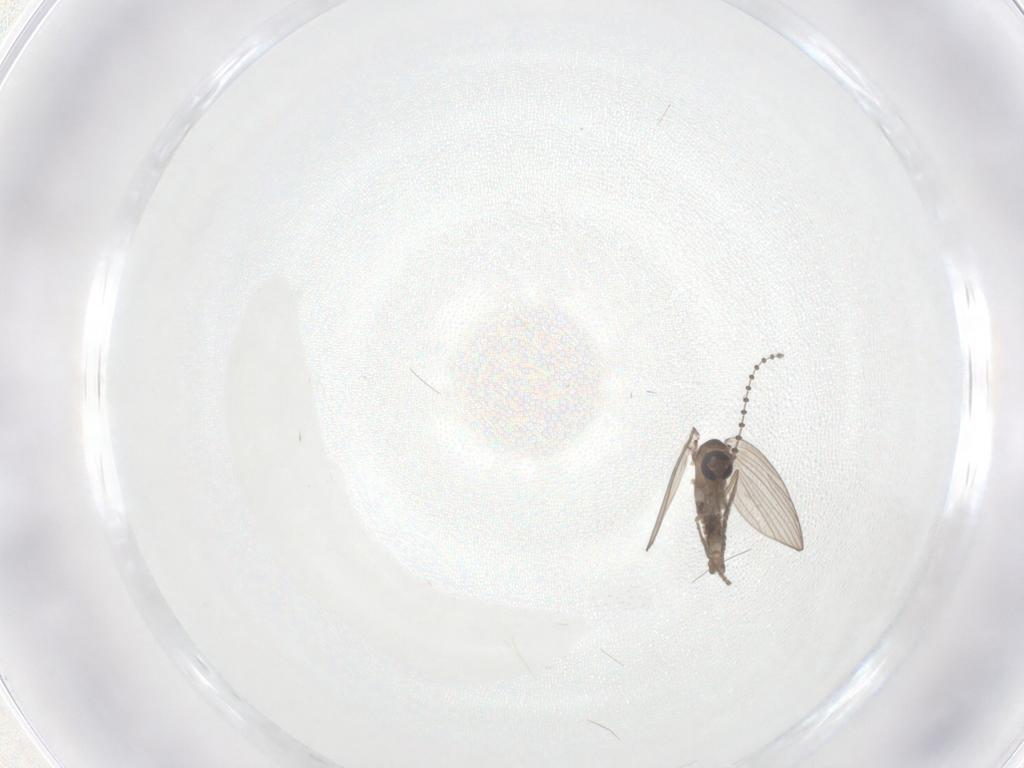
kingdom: Animalia
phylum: Arthropoda
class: Insecta
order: Diptera
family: Psychodidae
